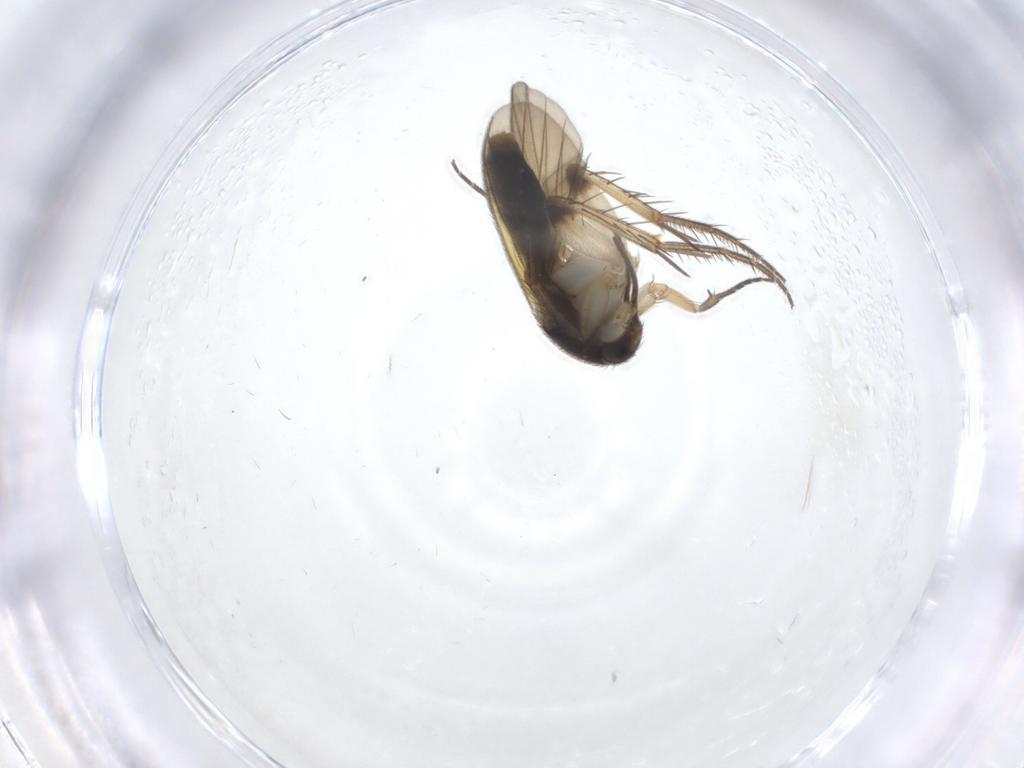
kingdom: Animalia
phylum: Arthropoda
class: Insecta
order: Diptera
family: Mycetophilidae
